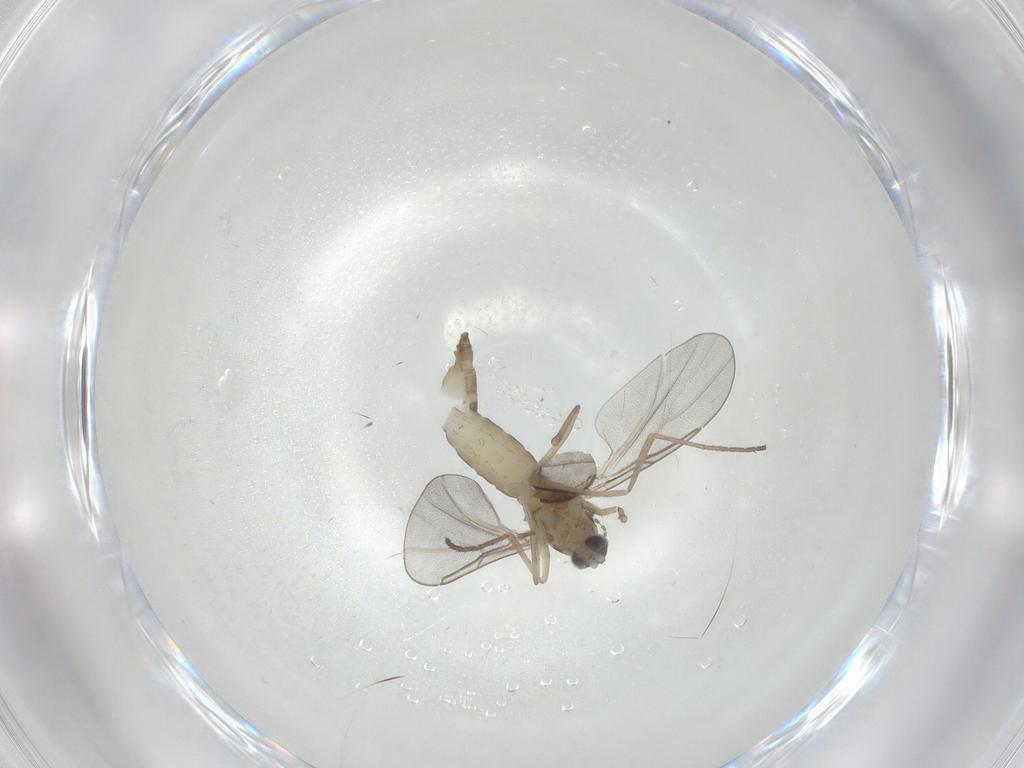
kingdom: Animalia
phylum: Arthropoda
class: Insecta
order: Diptera
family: Cecidomyiidae
